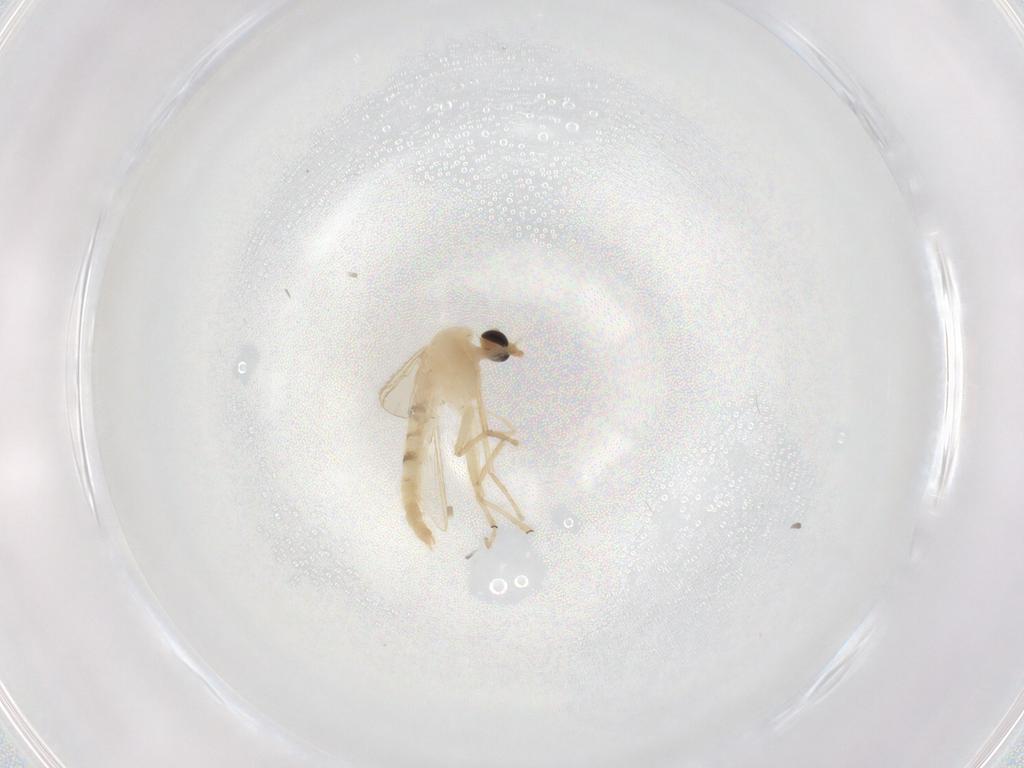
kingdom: Animalia
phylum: Arthropoda
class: Insecta
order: Diptera
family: Chironomidae
